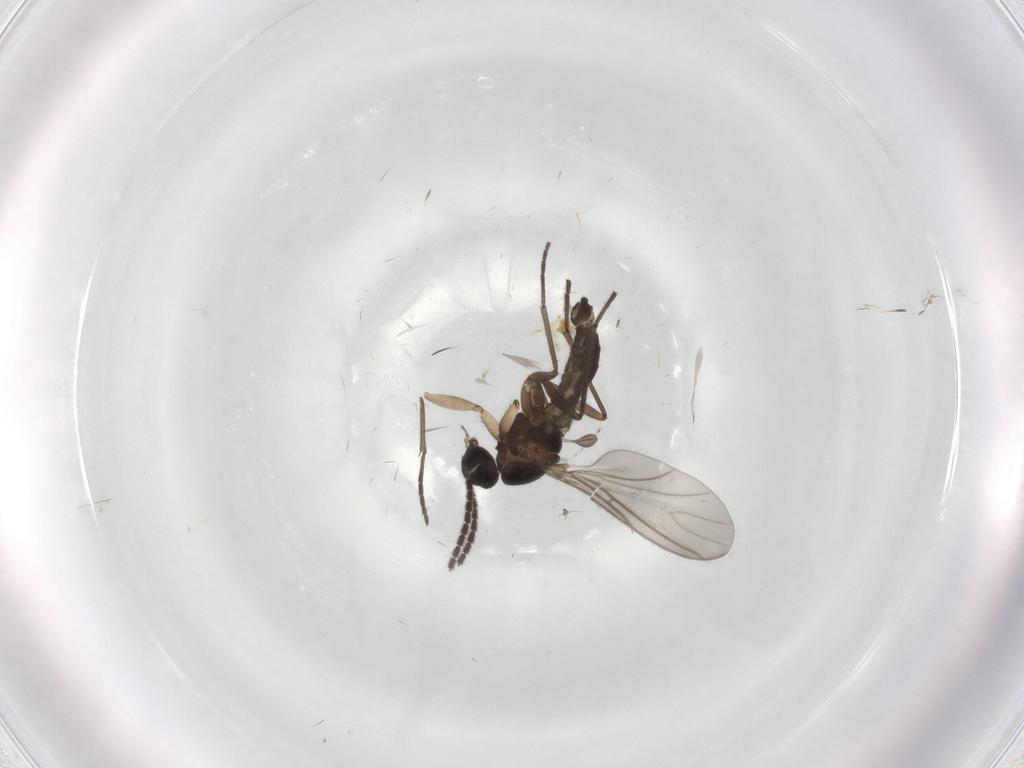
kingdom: Animalia
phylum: Arthropoda
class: Insecta
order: Diptera
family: Sciaridae
